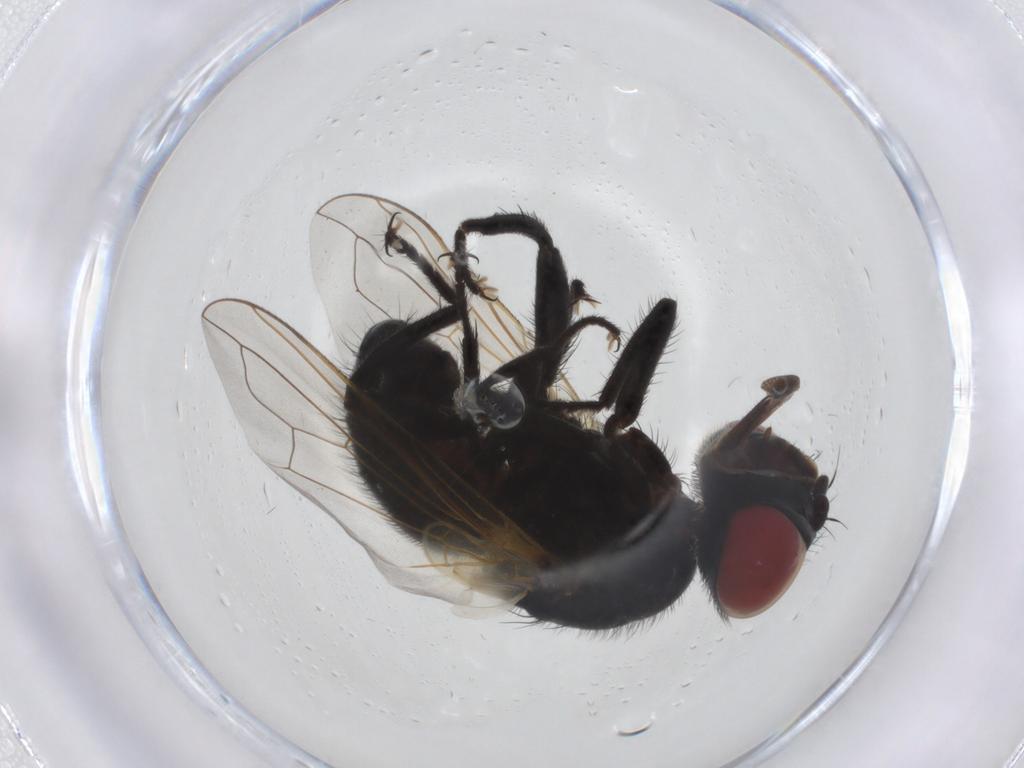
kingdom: Animalia
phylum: Arthropoda
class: Insecta
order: Diptera
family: Tachinidae
